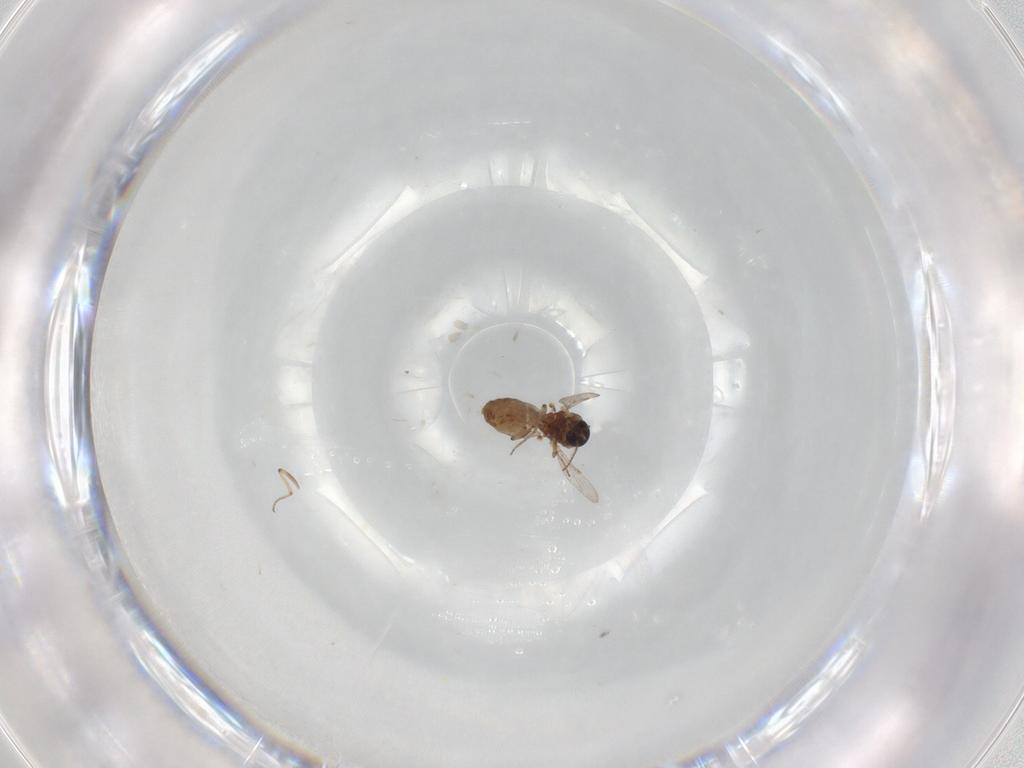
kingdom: Animalia
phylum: Arthropoda
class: Insecta
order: Diptera
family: Ceratopogonidae
